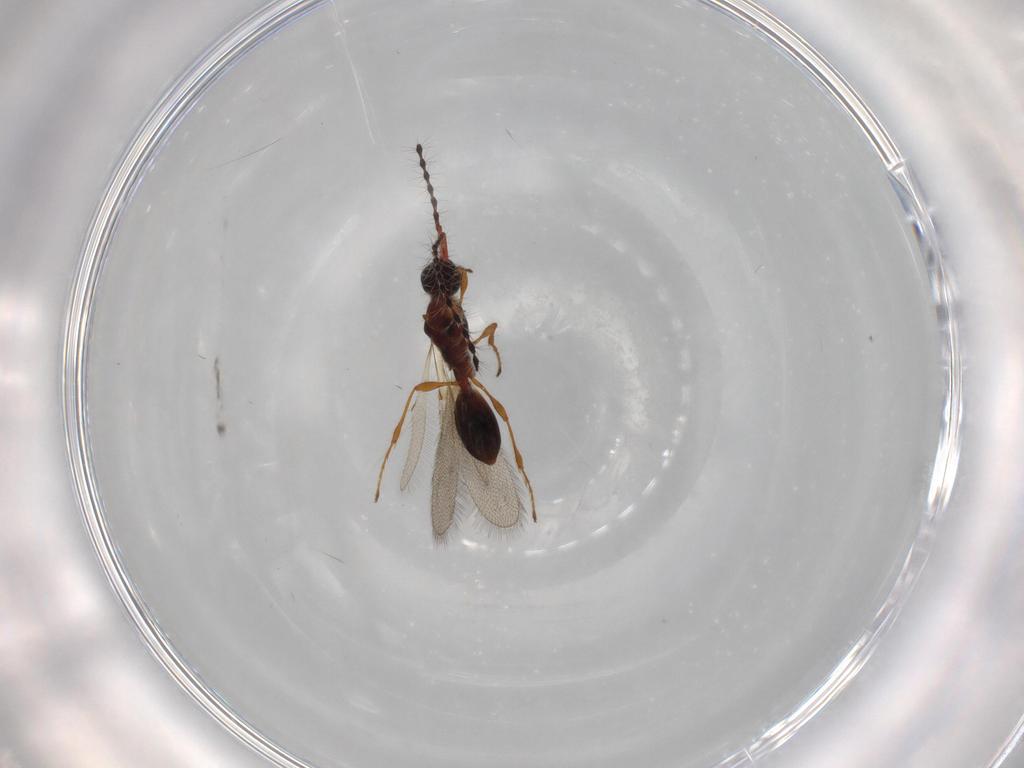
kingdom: Animalia
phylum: Arthropoda
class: Insecta
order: Hymenoptera
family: Diapriidae
